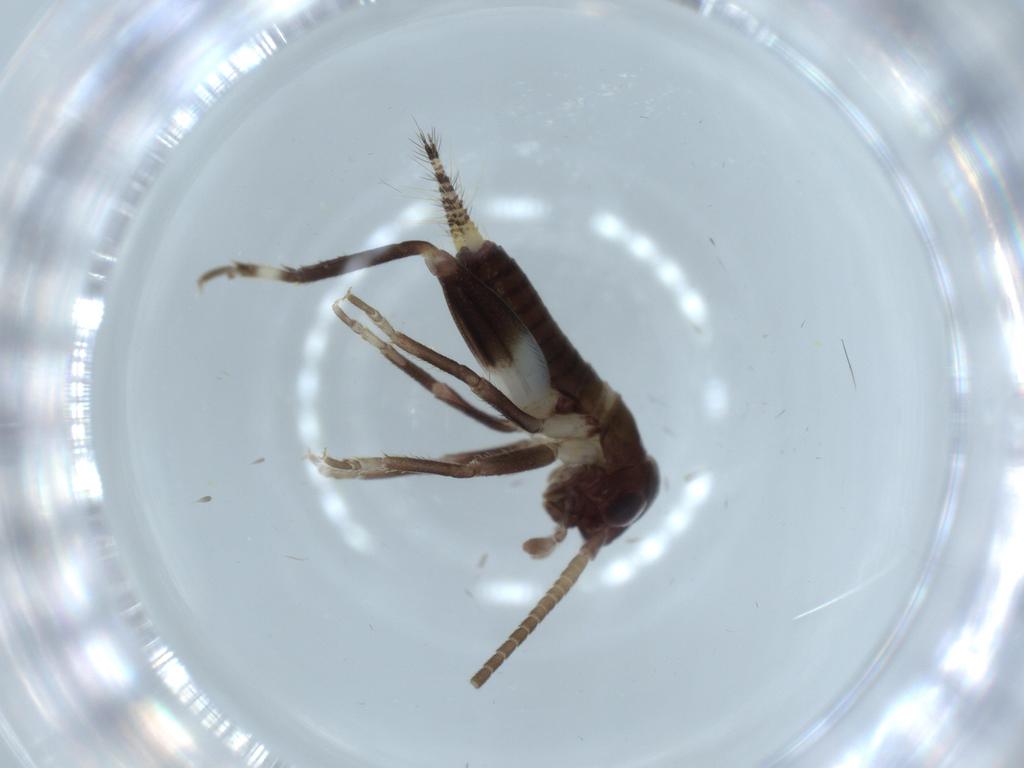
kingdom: Animalia
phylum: Arthropoda
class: Insecta
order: Orthoptera
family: Gryllidae
